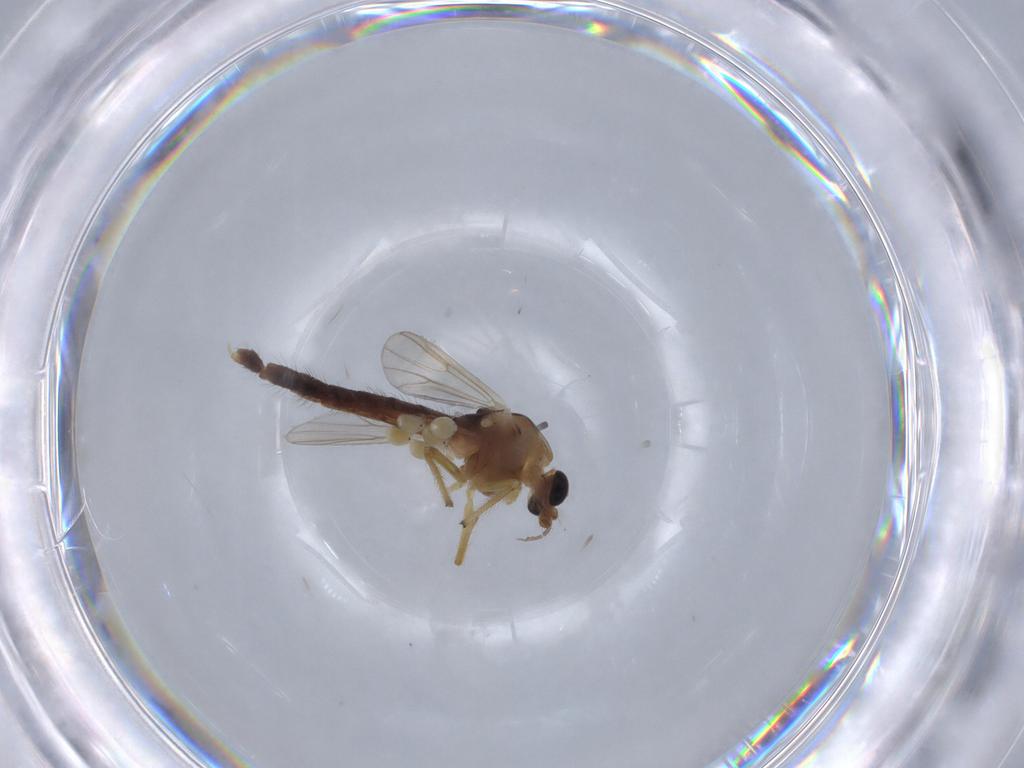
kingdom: Animalia
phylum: Arthropoda
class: Insecta
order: Diptera
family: Chironomidae
